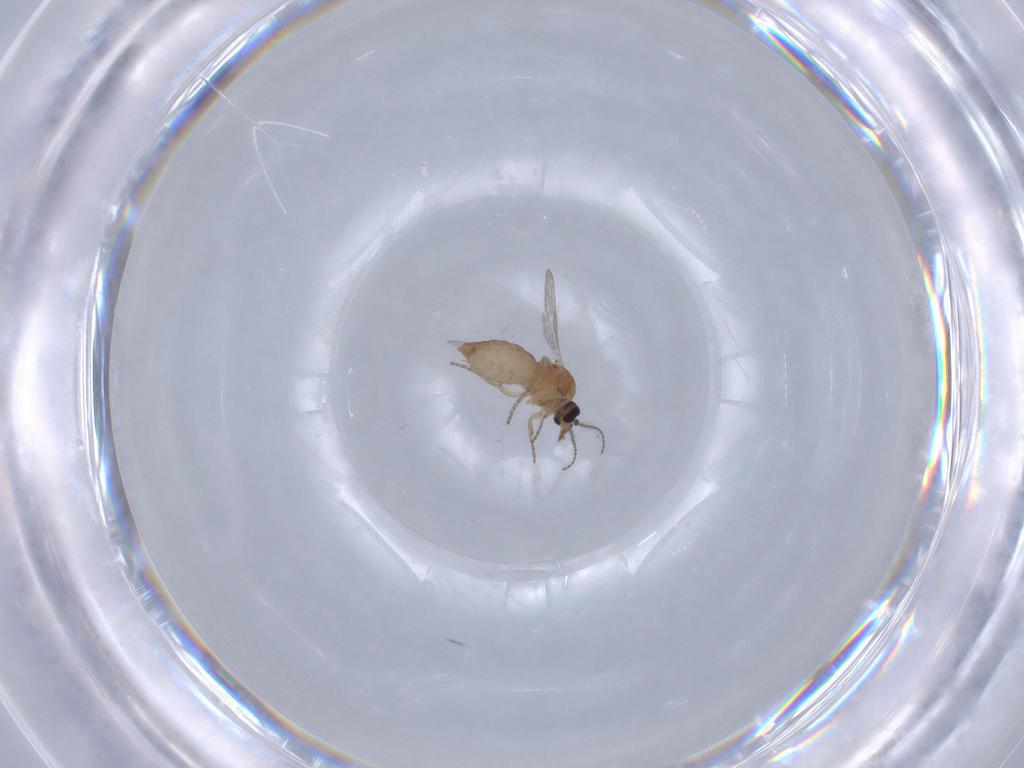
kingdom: Animalia
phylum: Arthropoda
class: Insecta
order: Diptera
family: Ceratopogonidae
